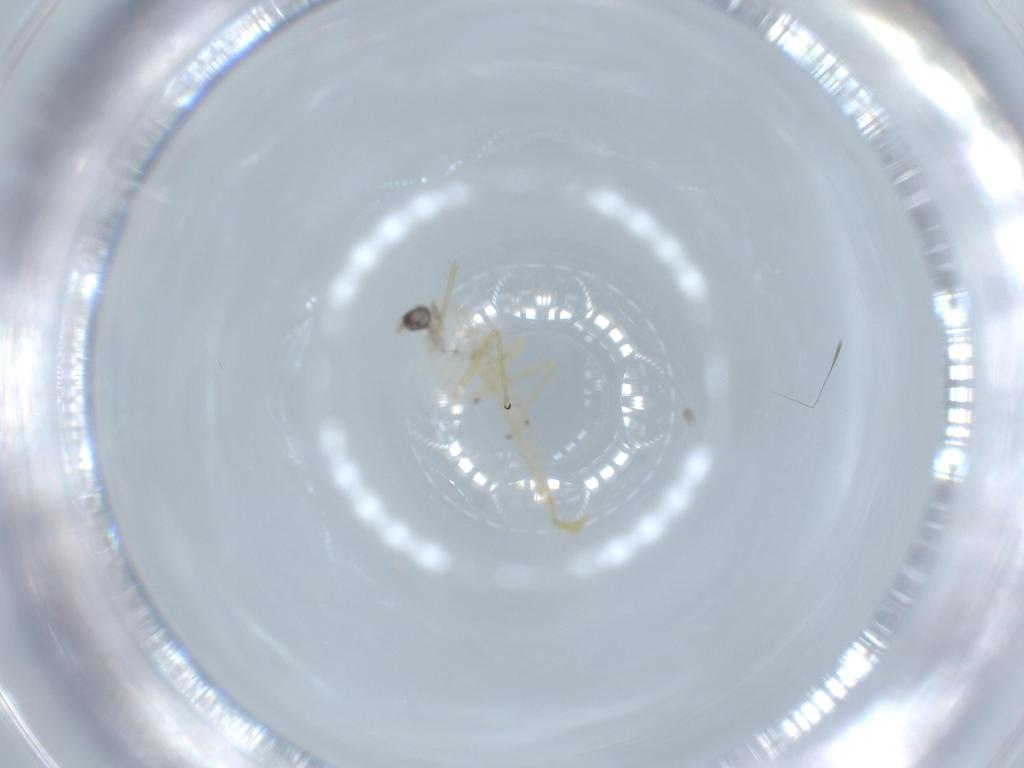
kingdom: Animalia
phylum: Arthropoda
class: Insecta
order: Diptera
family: Chironomidae
